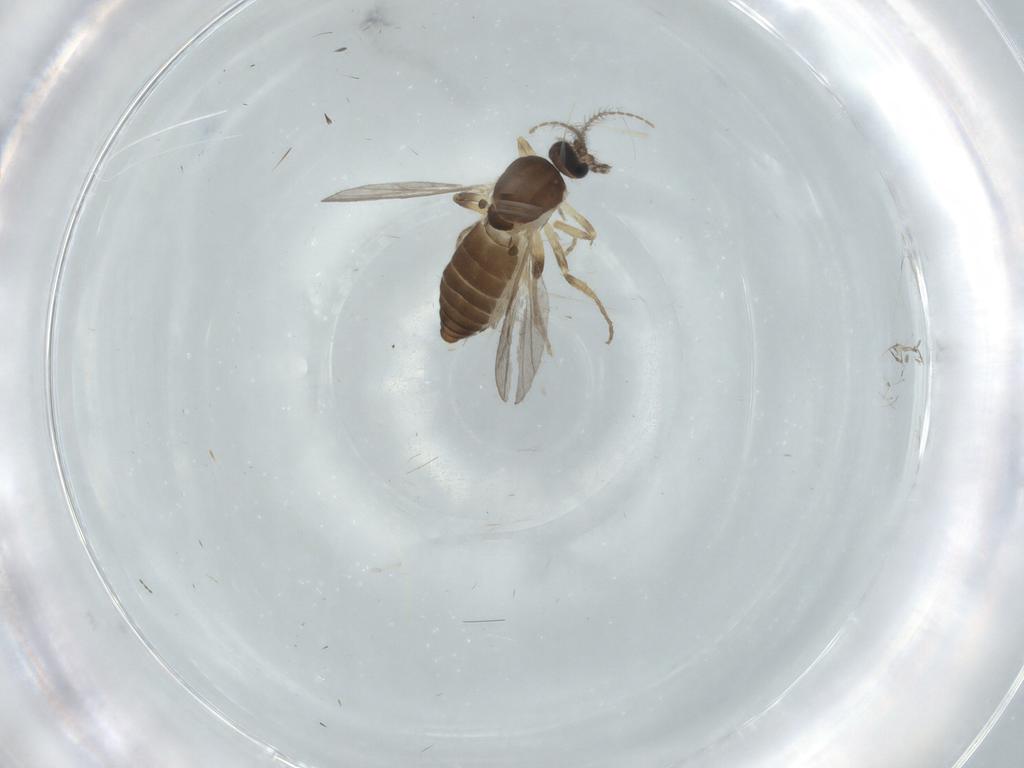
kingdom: Animalia
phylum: Arthropoda
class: Insecta
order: Diptera
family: Ceratopogonidae
